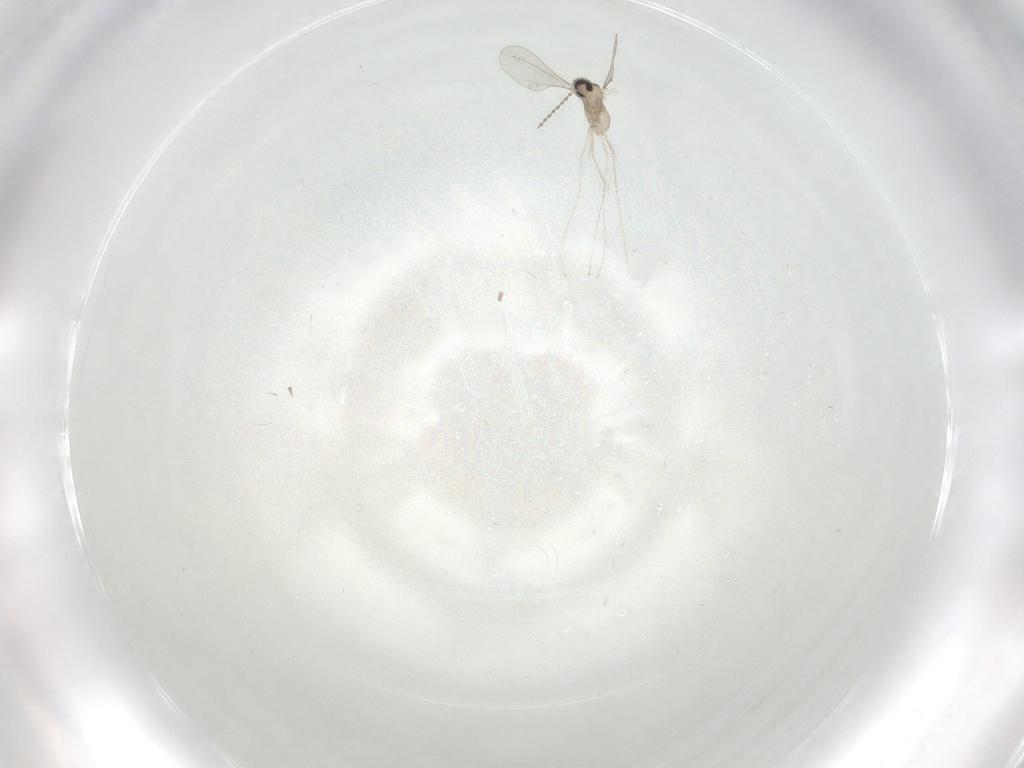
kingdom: Animalia
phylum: Arthropoda
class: Insecta
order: Diptera
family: Cecidomyiidae
